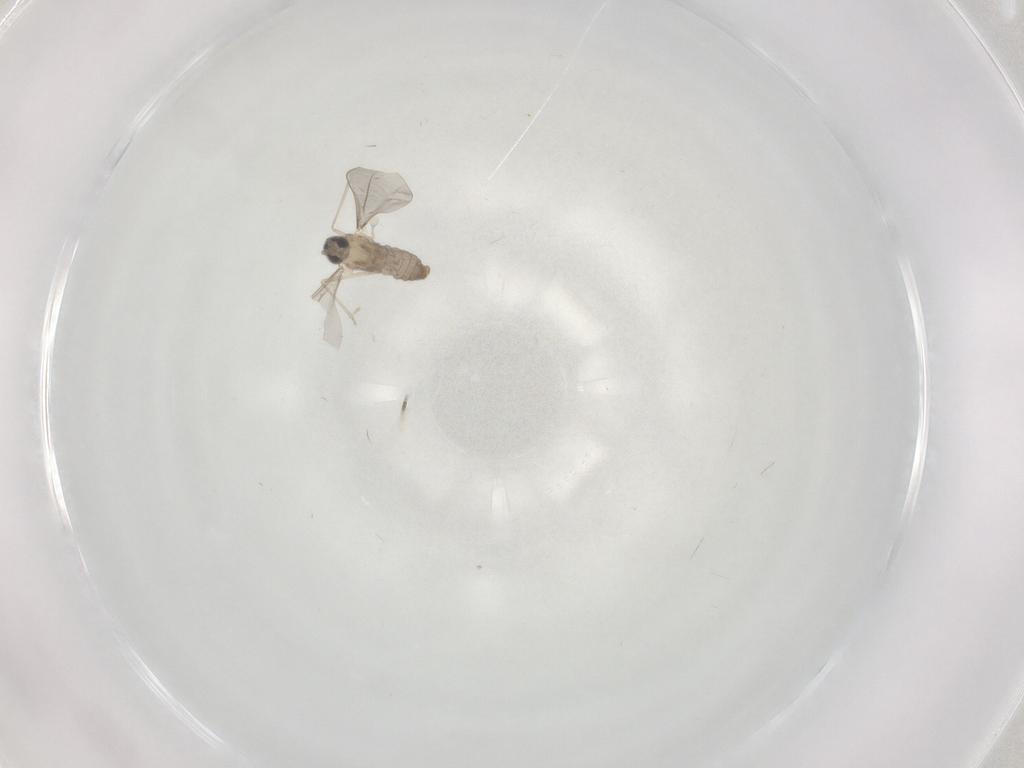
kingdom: Animalia
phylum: Arthropoda
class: Insecta
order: Diptera
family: Cecidomyiidae
